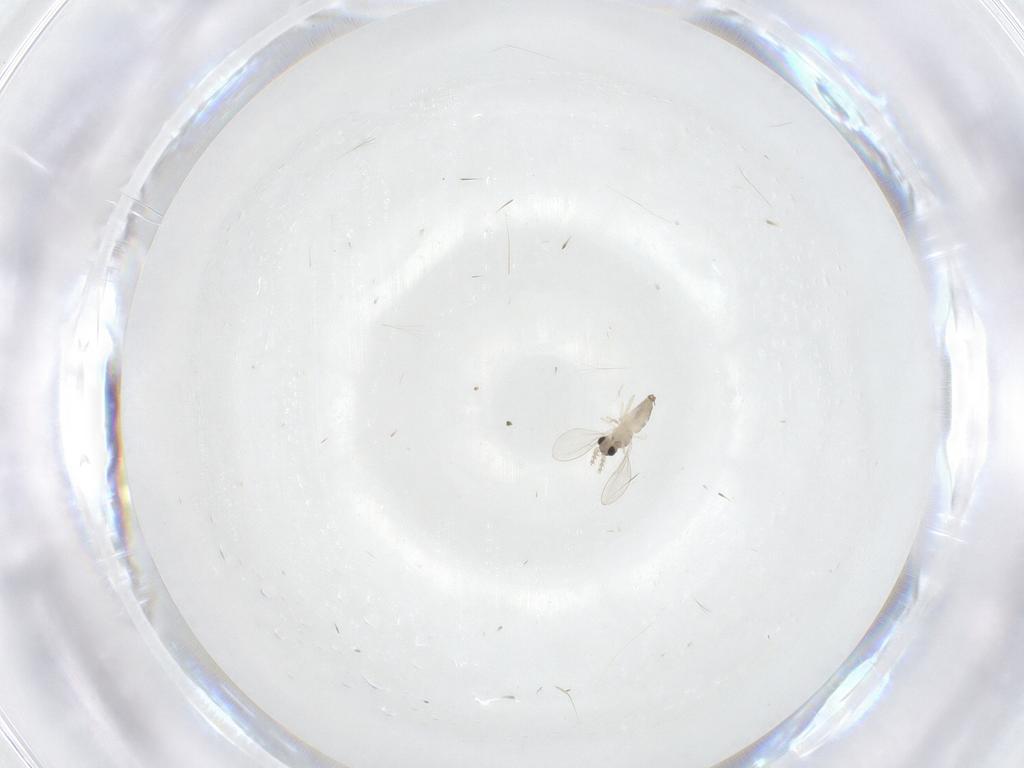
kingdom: Animalia
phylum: Arthropoda
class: Insecta
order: Diptera
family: Cecidomyiidae
